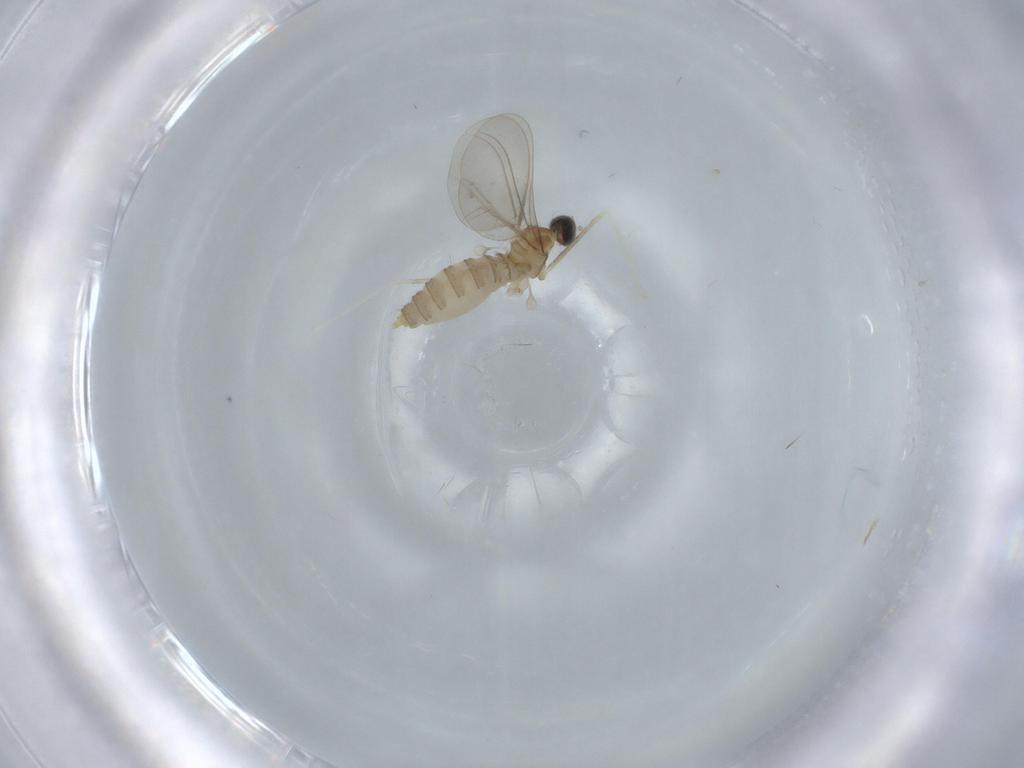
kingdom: Animalia
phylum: Arthropoda
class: Insecta
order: Diptera
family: Cecidomyiidae
